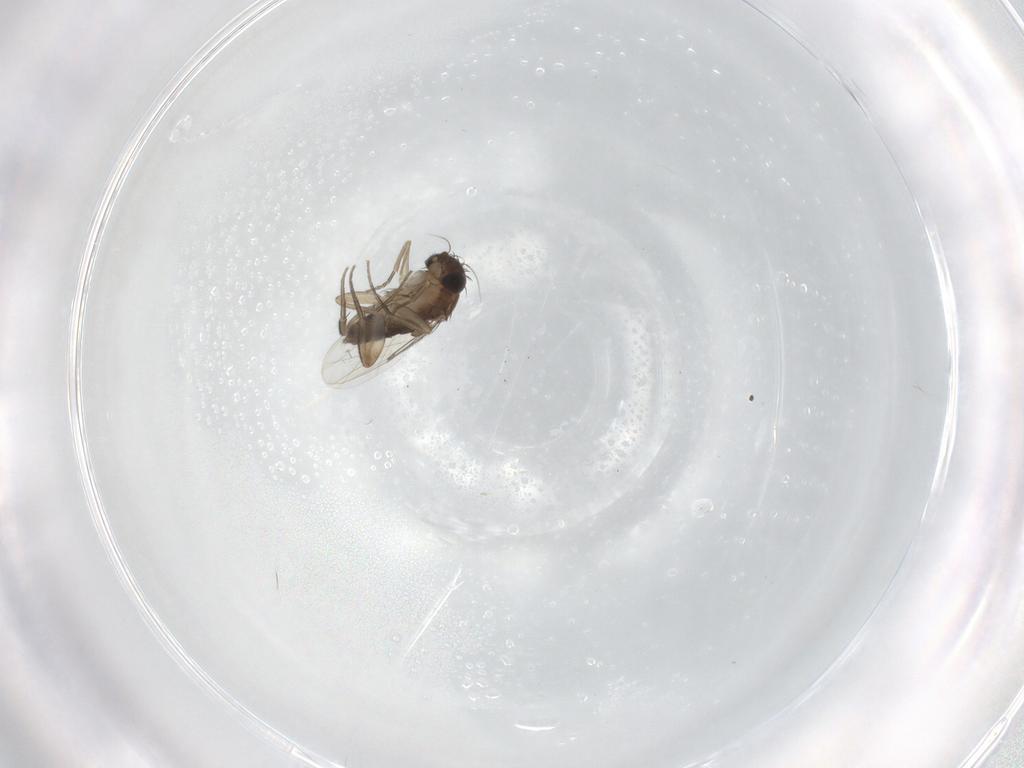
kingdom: Animalia
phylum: Arthropoda
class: Insecta
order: Diptera
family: Phoridae
